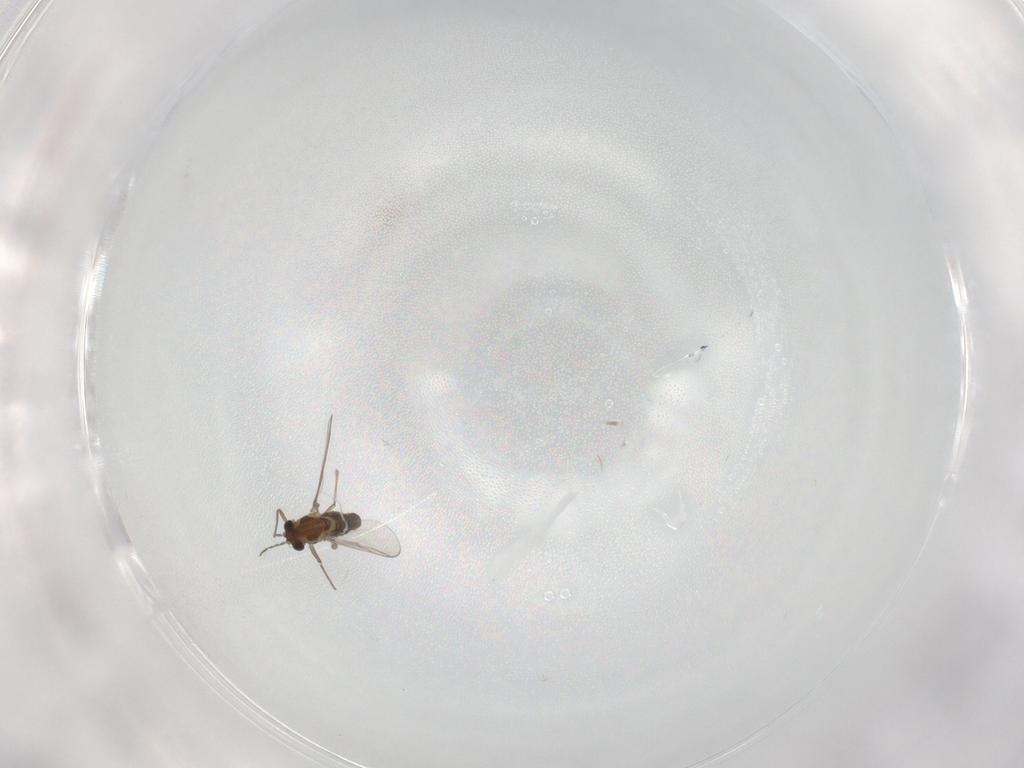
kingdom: Animalia
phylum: Arthropoda
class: Insecta
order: Diptera
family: Chironomidae
